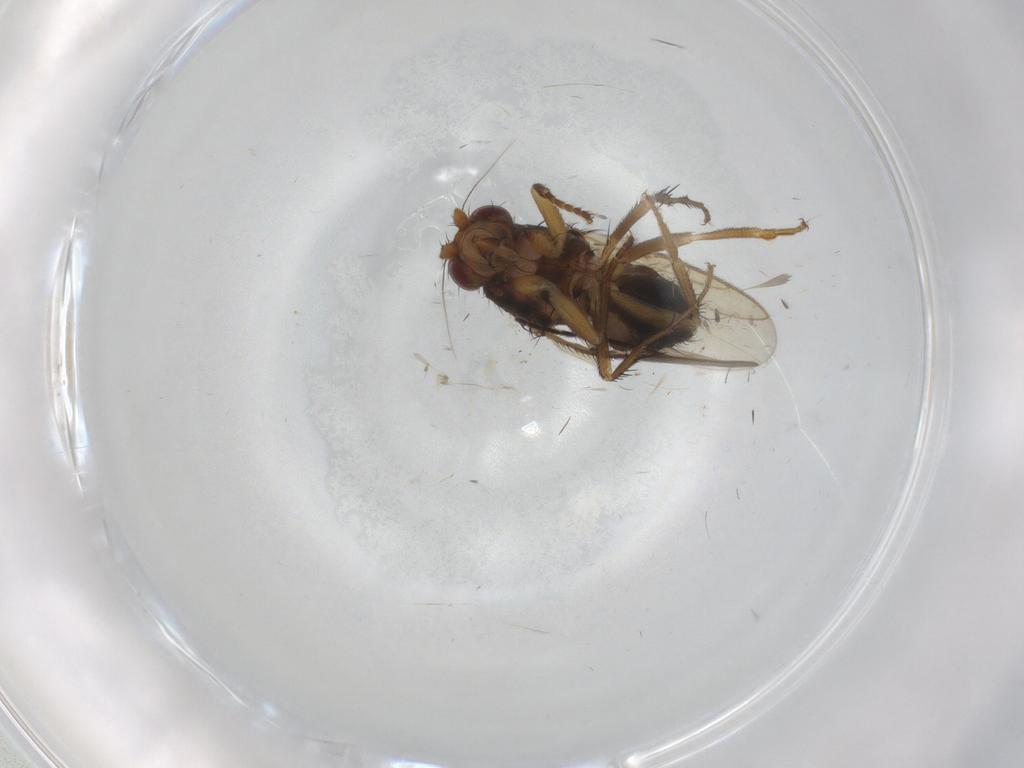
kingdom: Animalia
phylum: Arthropoda
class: Insecta
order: Diptera
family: Sphaeroceridae
